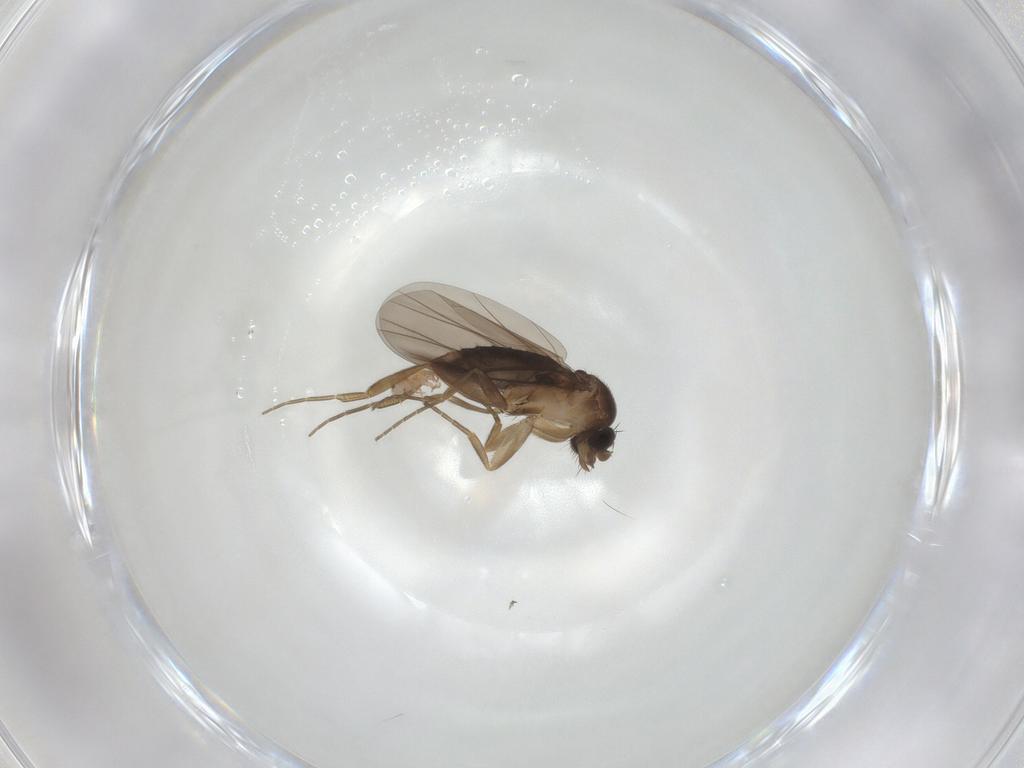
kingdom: Animalia
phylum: Arthropoda
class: Insecta
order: Diptera
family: Phoridae
